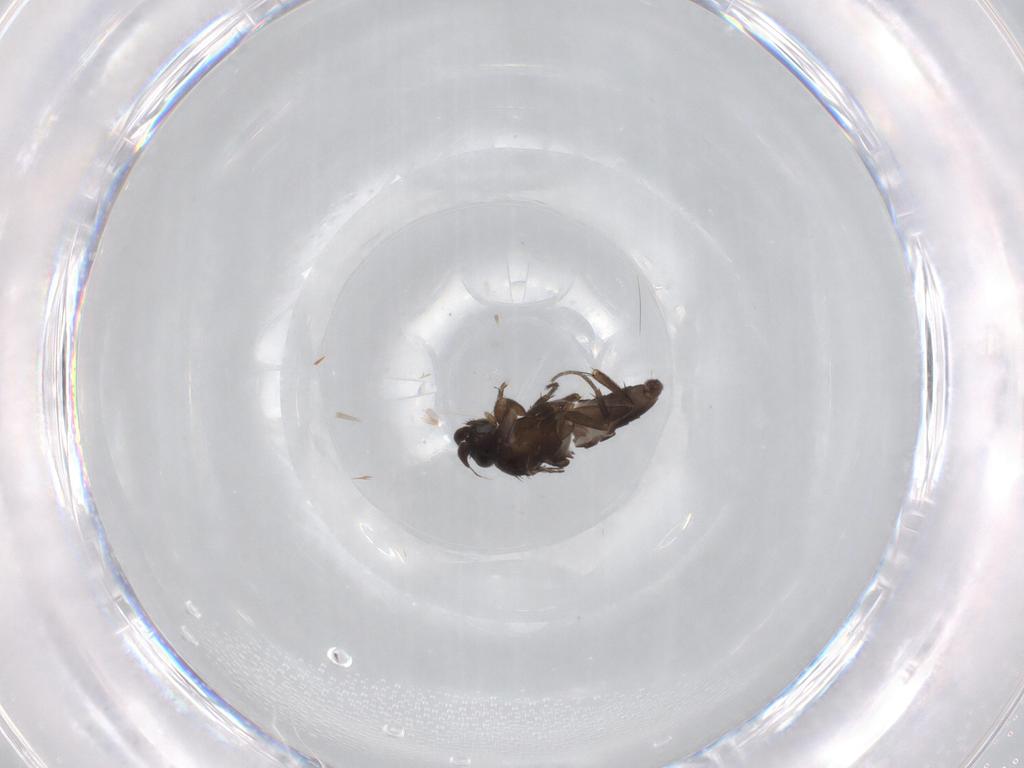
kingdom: Animalia
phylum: Arthropoda
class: Insecta
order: Diptera
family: Phoridae
